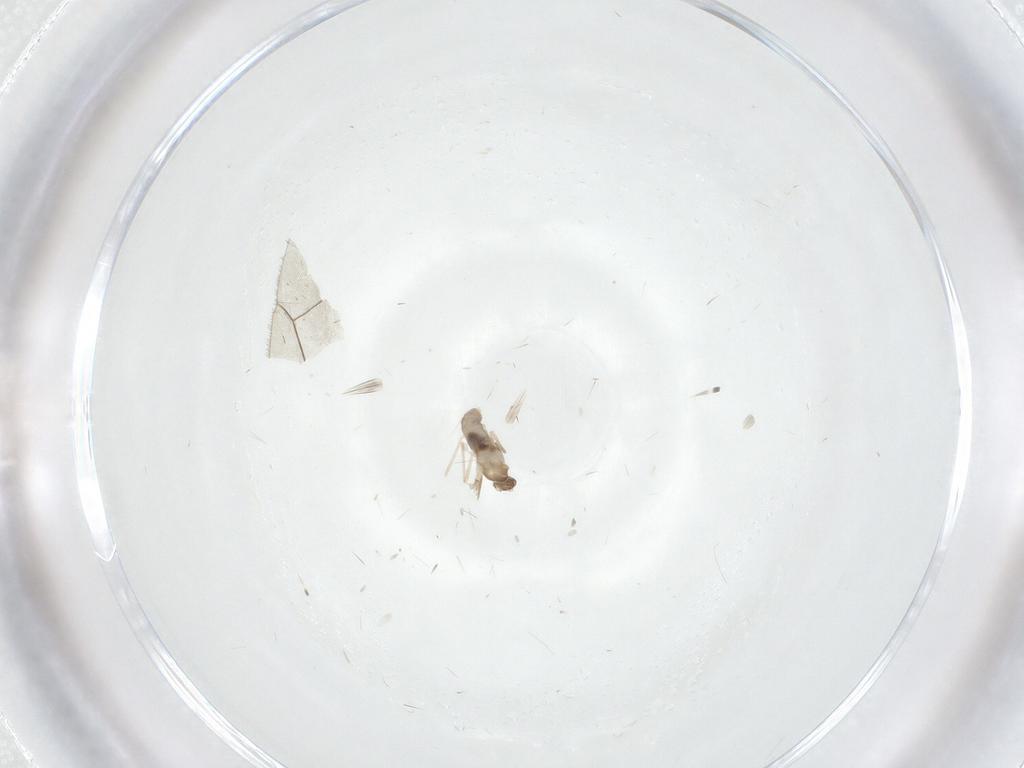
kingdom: Animalia
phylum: Arthropoda
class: Insecta
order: Diptera
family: Cecidomyiidae
